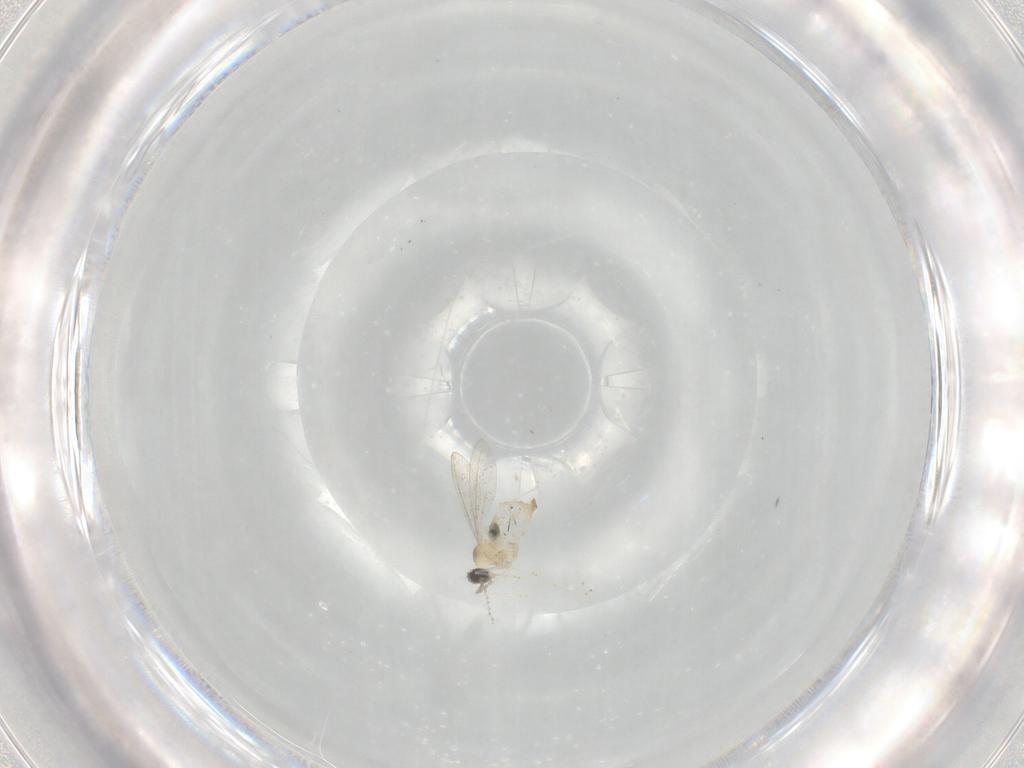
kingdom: Animalia
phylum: Arthropoda
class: Insecta
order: Diptera
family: Cecidomyiidae
